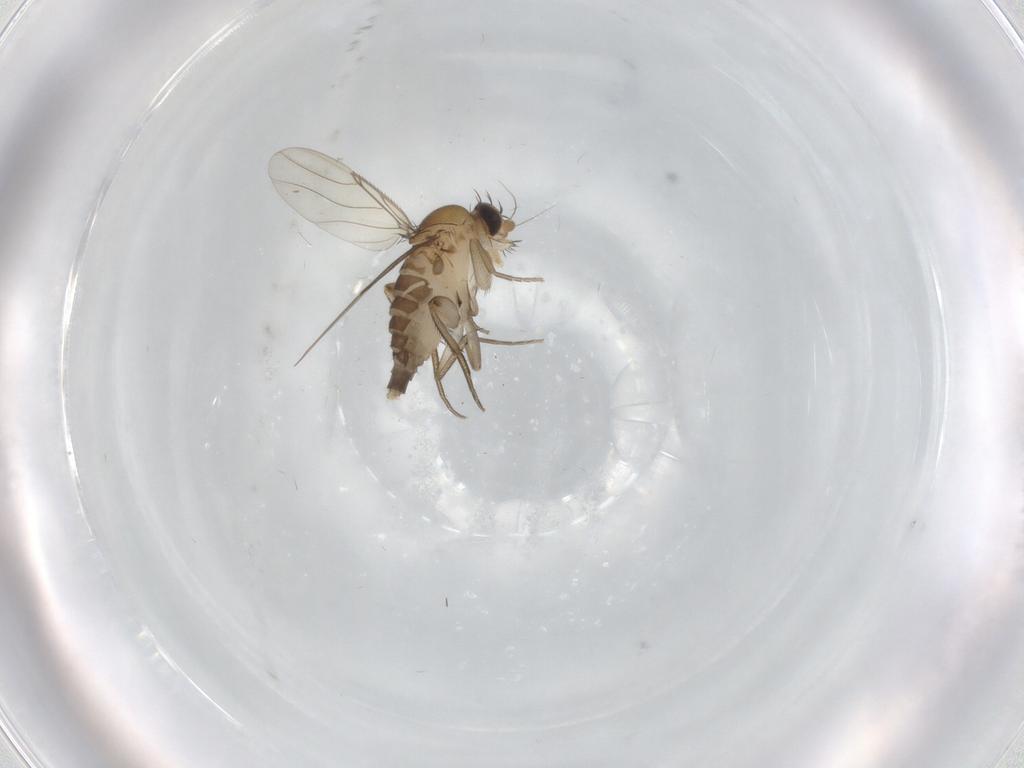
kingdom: Animalia
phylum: Arthropoda
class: Insecta
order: Diptera
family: Phoridae
